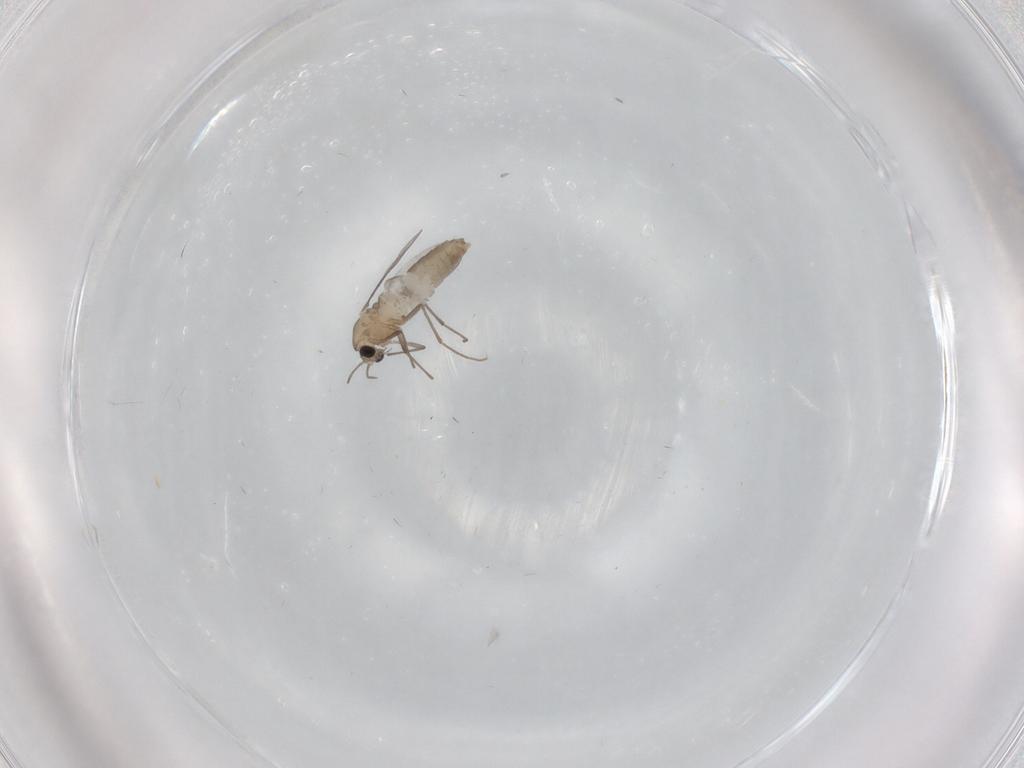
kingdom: Animalia
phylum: Arthropoda
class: Insecta
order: Diptera
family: Chironomidae
